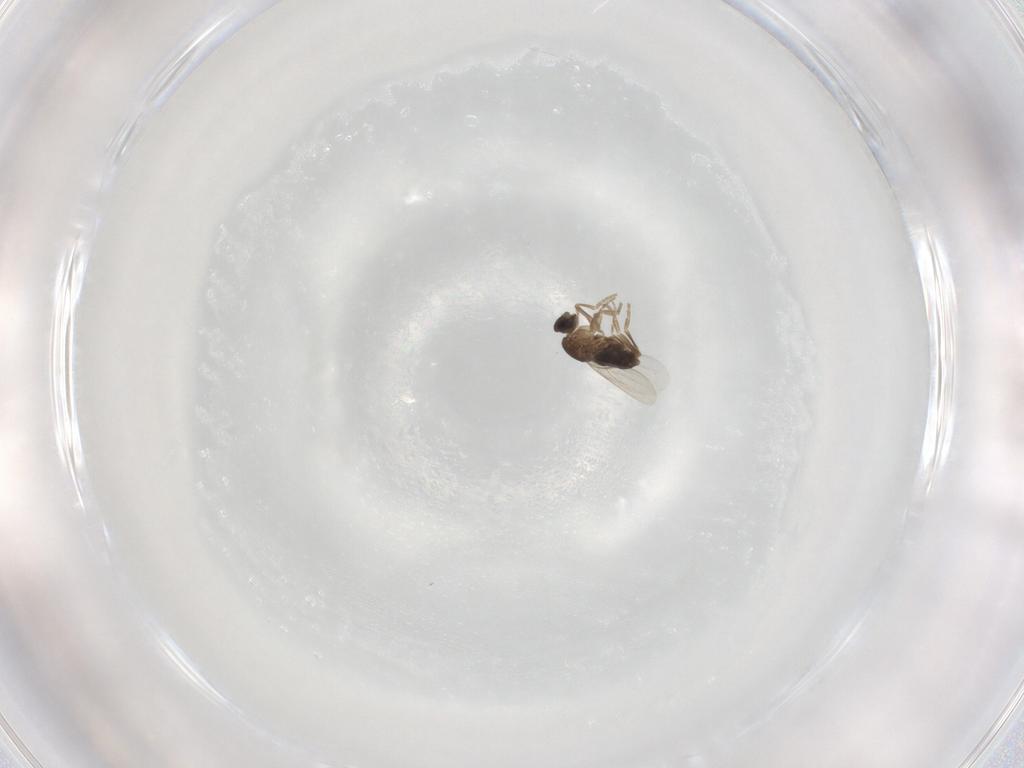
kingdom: Animalia
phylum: Arthropoda
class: Insecta
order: Diptera
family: Chironomidae
